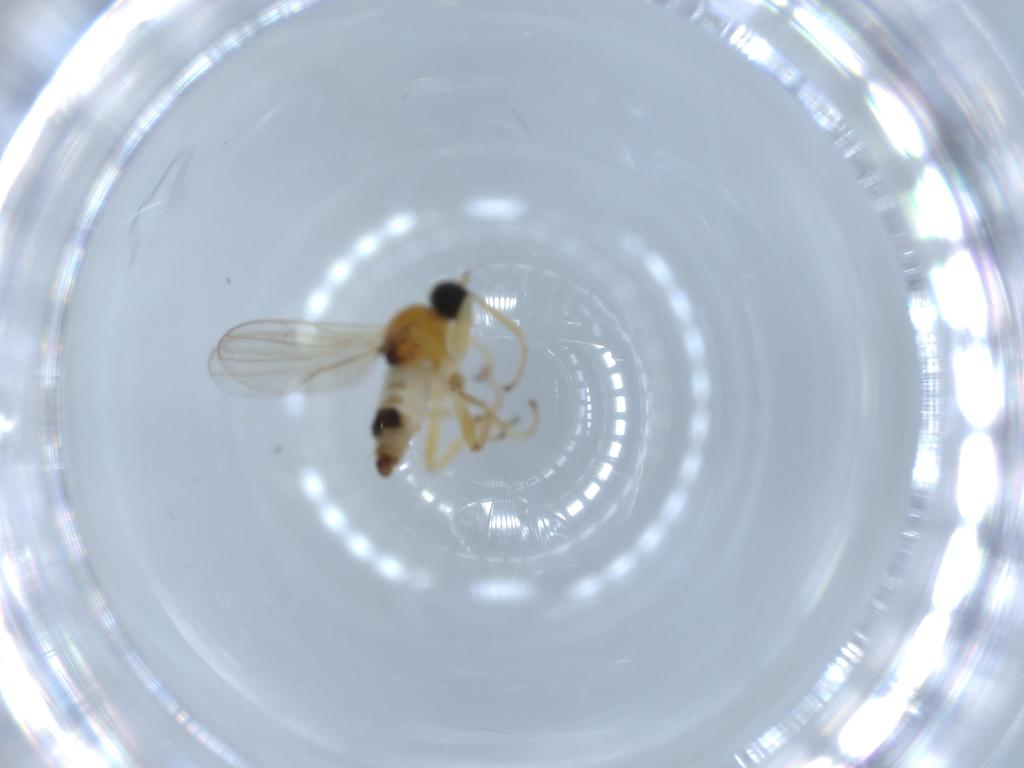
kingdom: Animalia
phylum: Arthropoda
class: Insecta
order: Diptera
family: Hybotidae
